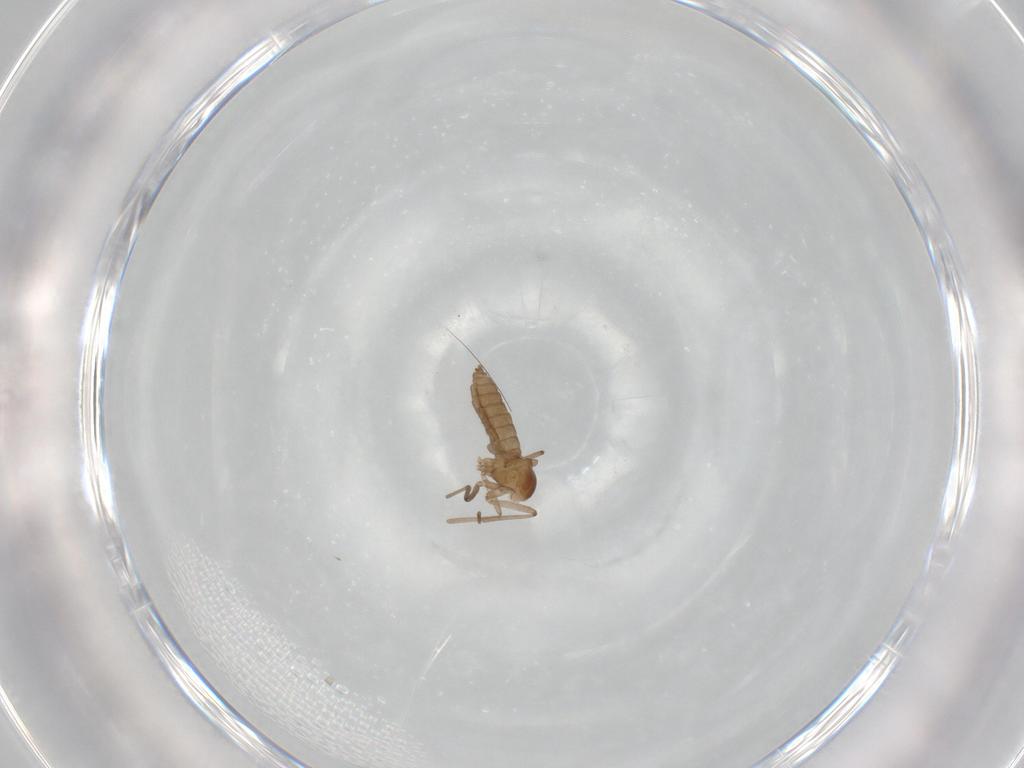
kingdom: Animalia
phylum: Arthropoda
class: Insecta
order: Diptera
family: Cecidomyiidae
